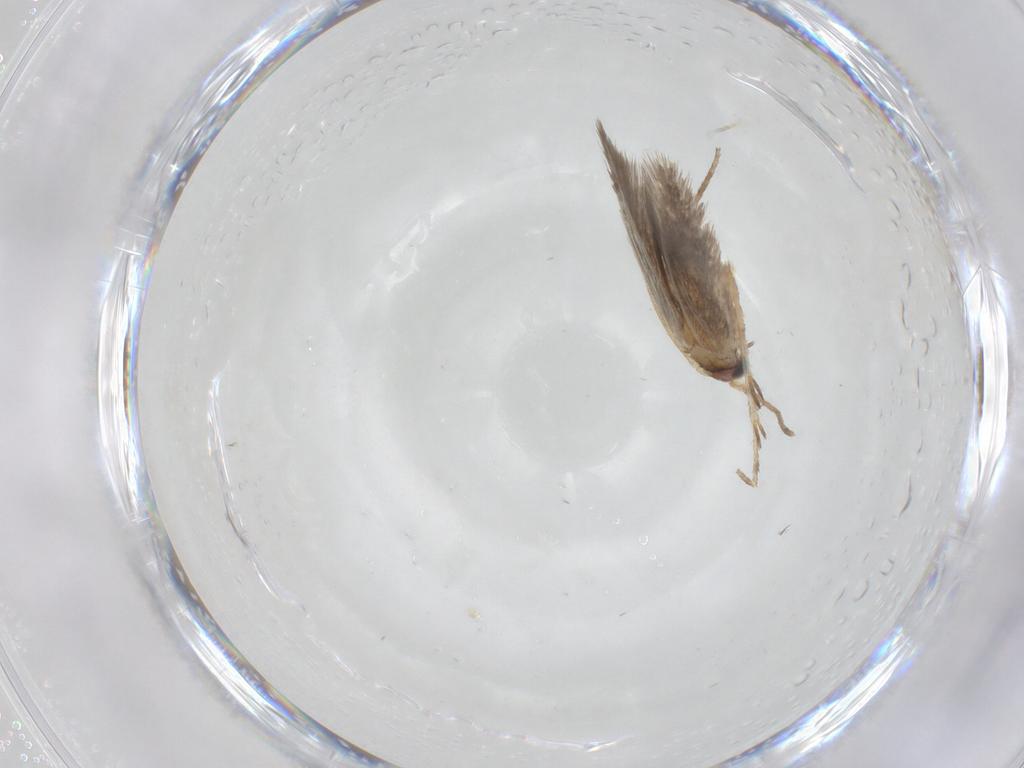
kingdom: Animalia
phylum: Arthropoda
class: Insecta
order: Lepidoptera
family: Nepticulidae
